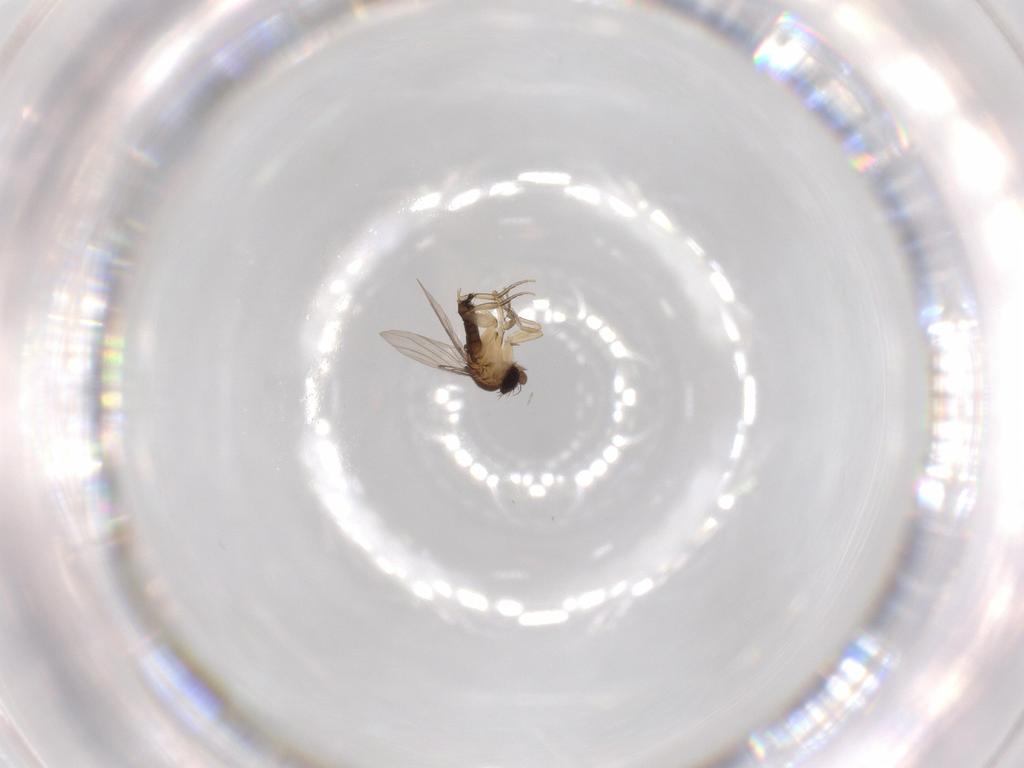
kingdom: Animalia
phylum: Arthropoda
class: Insecta
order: Diptera
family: Phoridae
